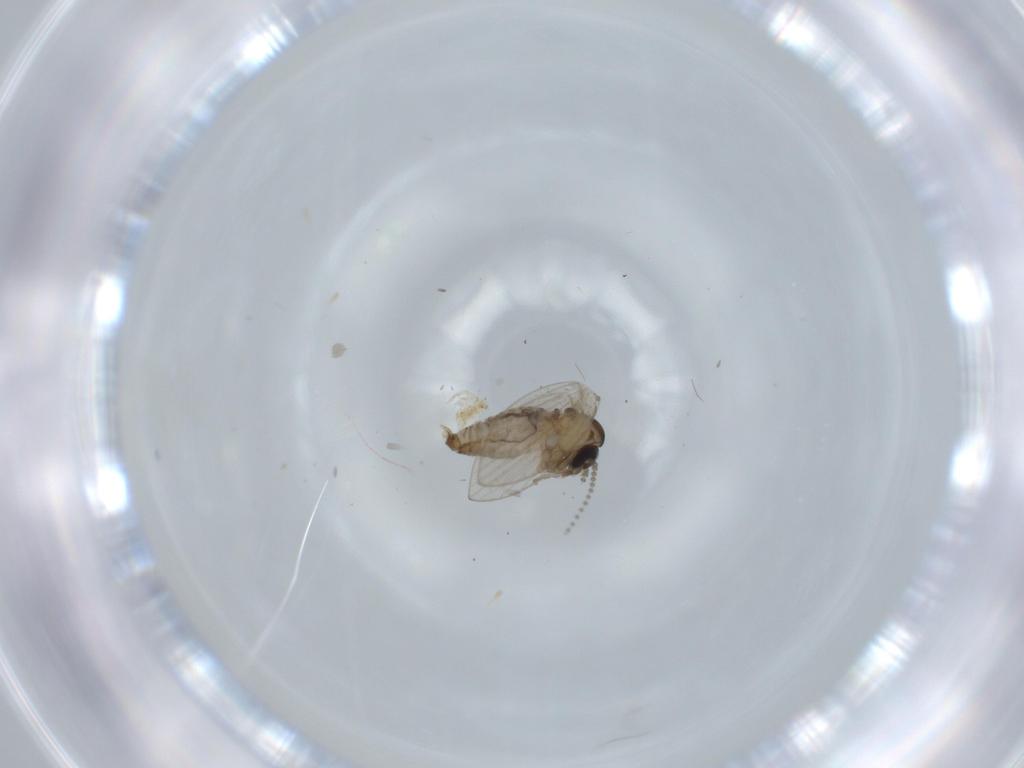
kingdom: Animalia
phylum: Arthropoda
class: Insecta
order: Diptera
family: Psychodidae
